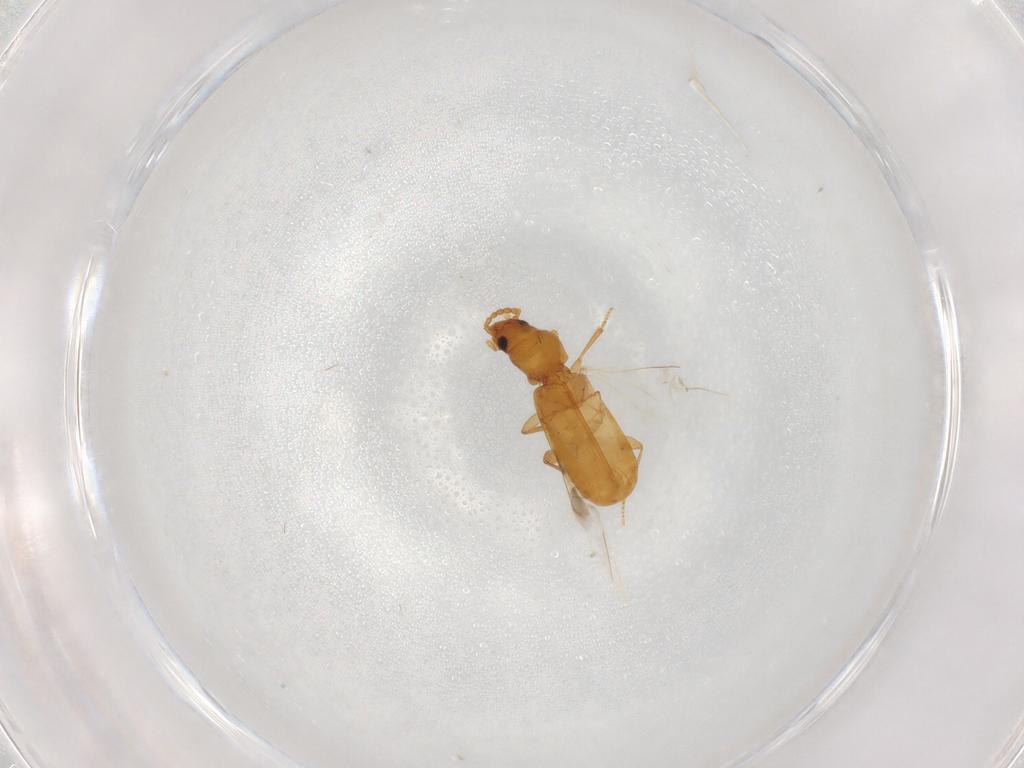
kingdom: Animalia
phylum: Arthropoda
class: Insecta
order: Coleoptera
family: Carabidae
